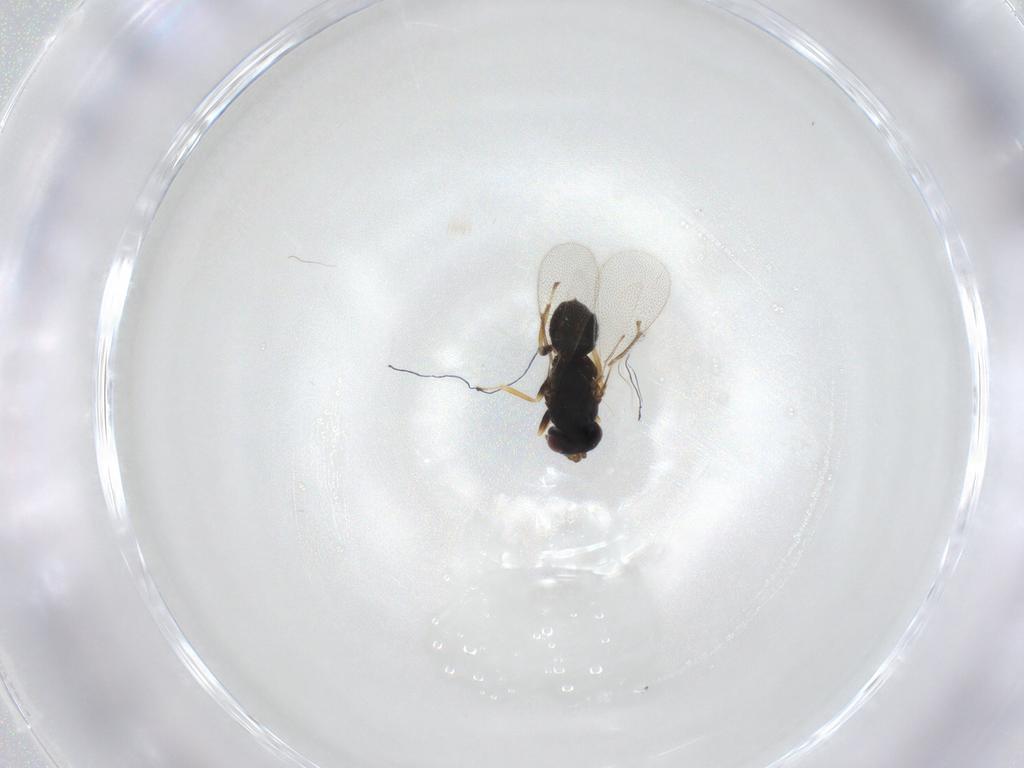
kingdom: Animalia
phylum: Arthropoda
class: Insecta
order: Hymenoptera
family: Eulophidae
